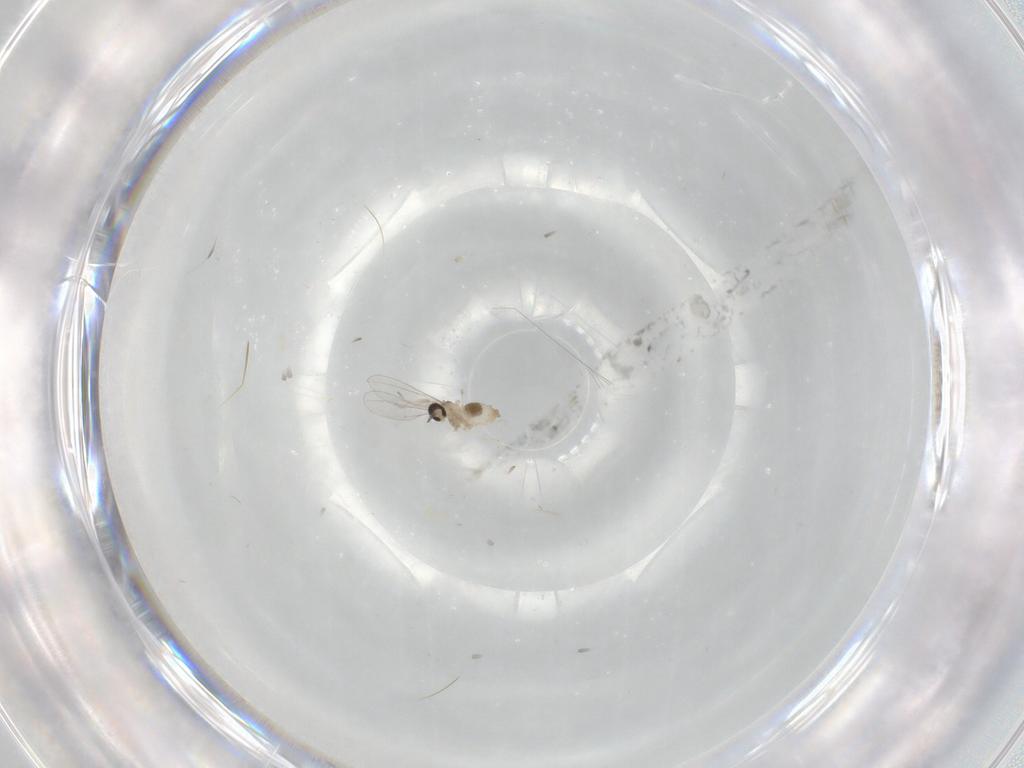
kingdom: Animalia
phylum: Arthropoda
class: Insecta
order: Diptera
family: Cecidomyiidae
